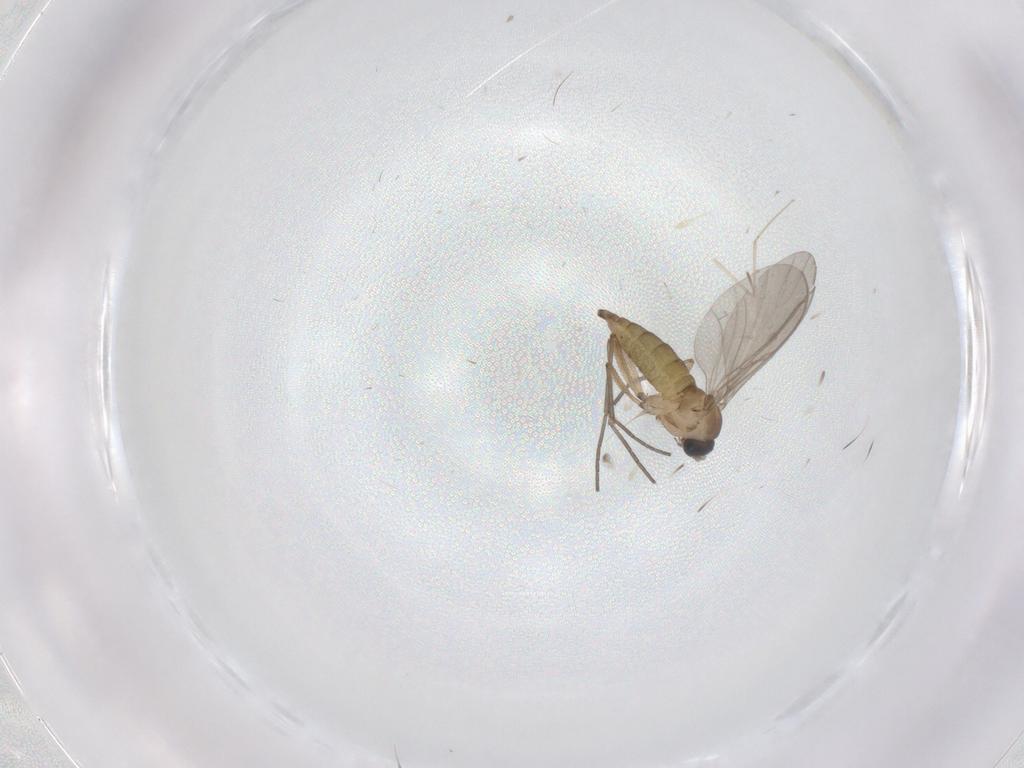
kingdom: Animalia
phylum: Arthropoda
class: Insecta
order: Diptera
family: Cecidomyiidae
